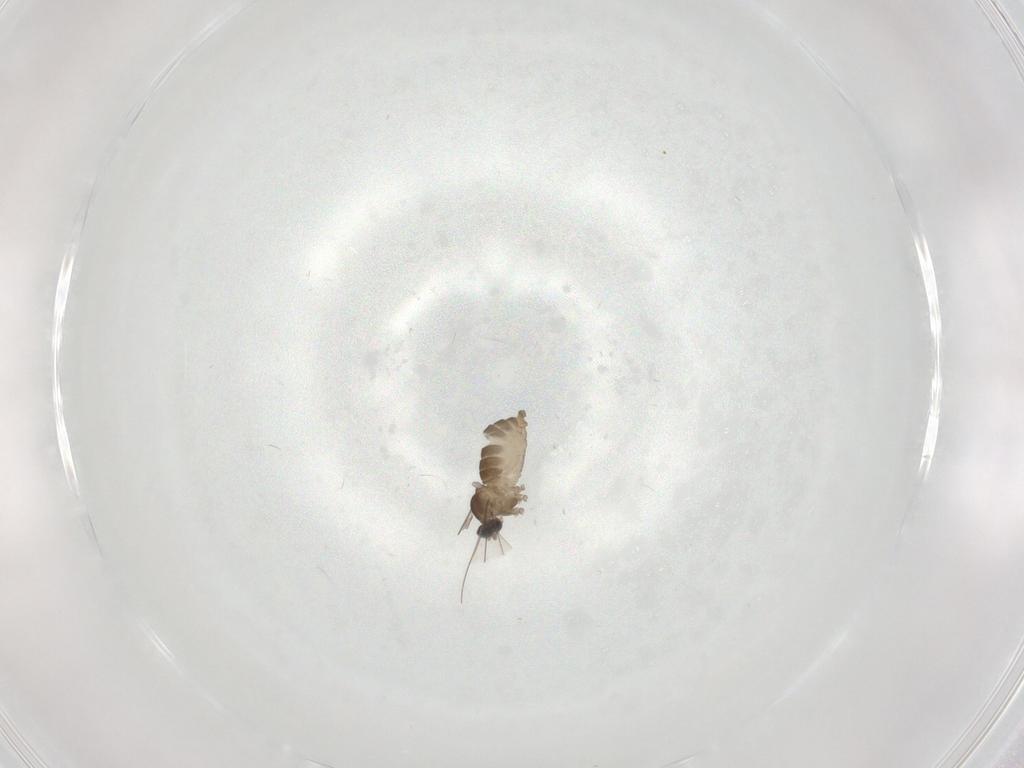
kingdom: Animalia
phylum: Arthropoda
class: Insecta
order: Diptera
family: Cecidomyiidae
